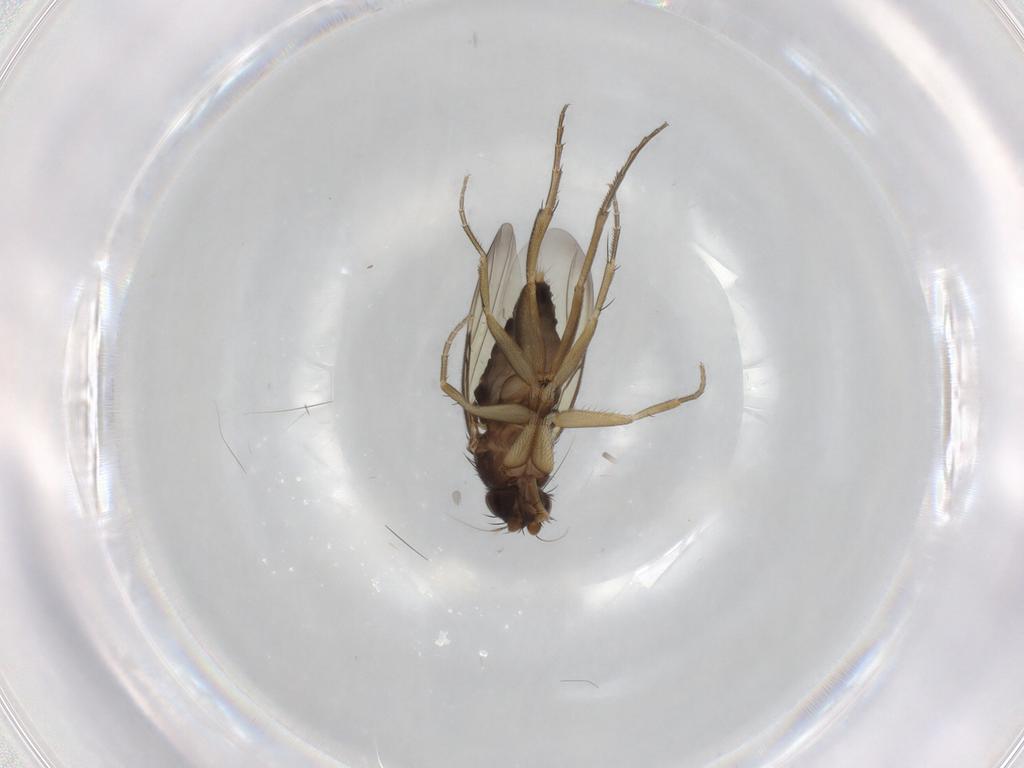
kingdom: Animalia
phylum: Arthropoda
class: Insecta
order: Diptera
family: Phoridae
